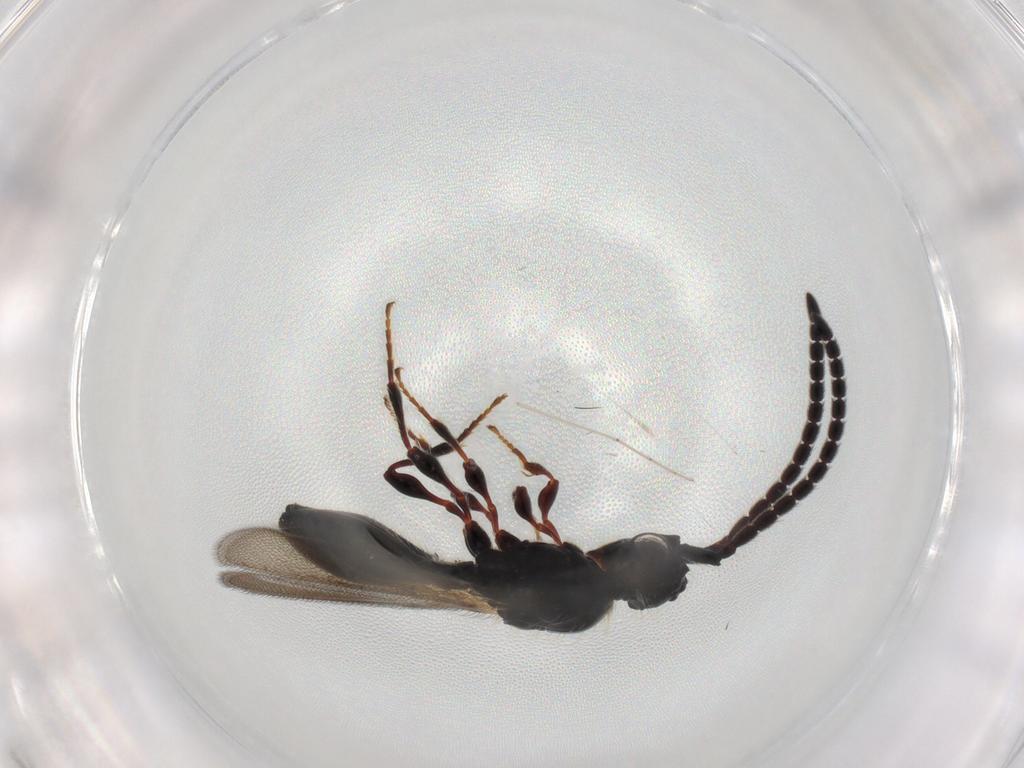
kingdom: Animalia
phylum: Arthropoda
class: Insecta
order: Hymenoptera
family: Diapriidae
